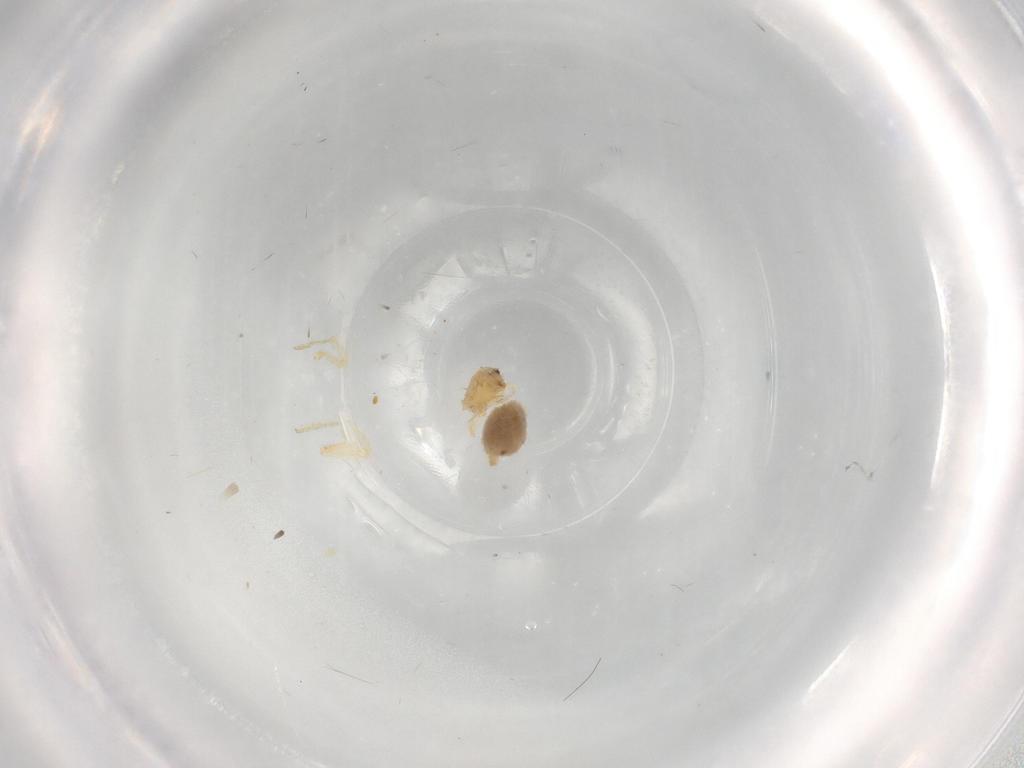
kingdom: Animalia
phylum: Arthropoda
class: Arachnida
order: Araneae
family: Oonopidae
